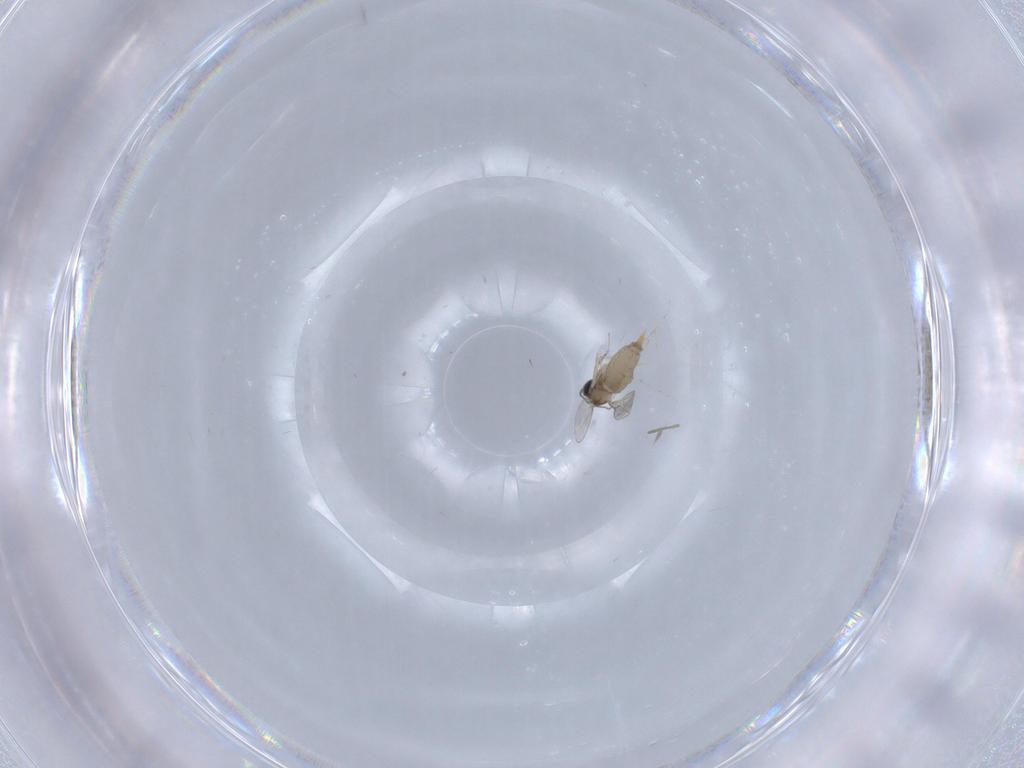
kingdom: Animalia
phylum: Arthropoda
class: Insecta
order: Diptera
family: Chironomidae
